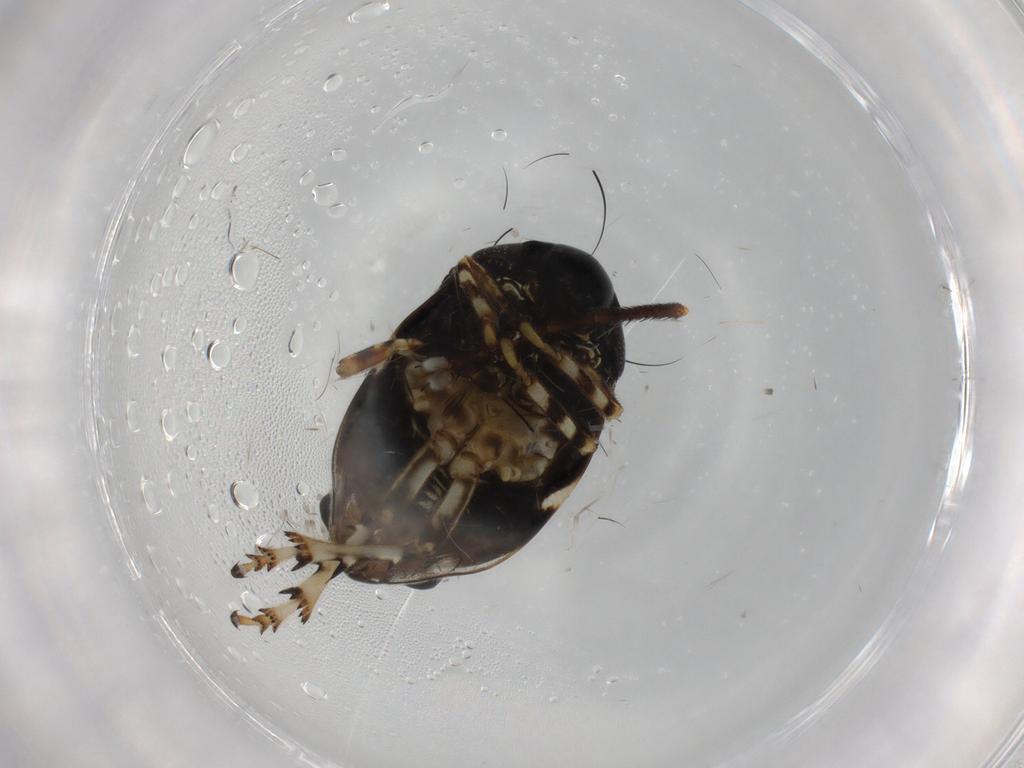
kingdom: Animalia
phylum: Arthropoda
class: Insecta
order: Hemiptera
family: Clastopteridae
